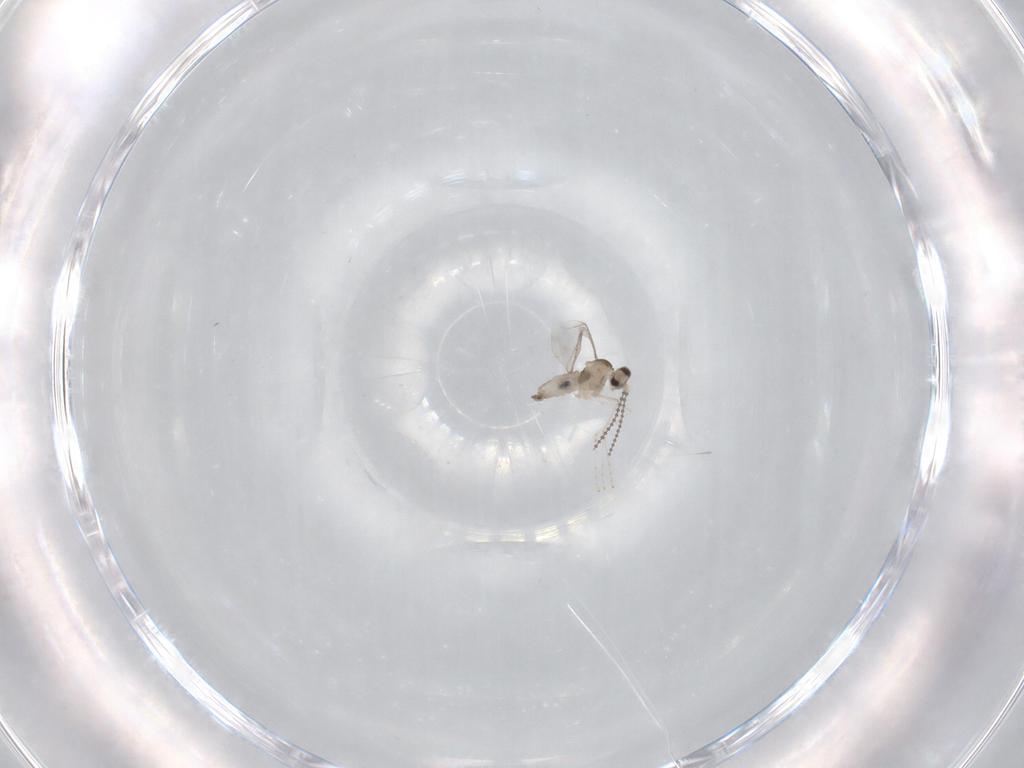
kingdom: Animalia
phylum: Arthropoda
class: Insecta
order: Diptera
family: Cecidomyiidae
